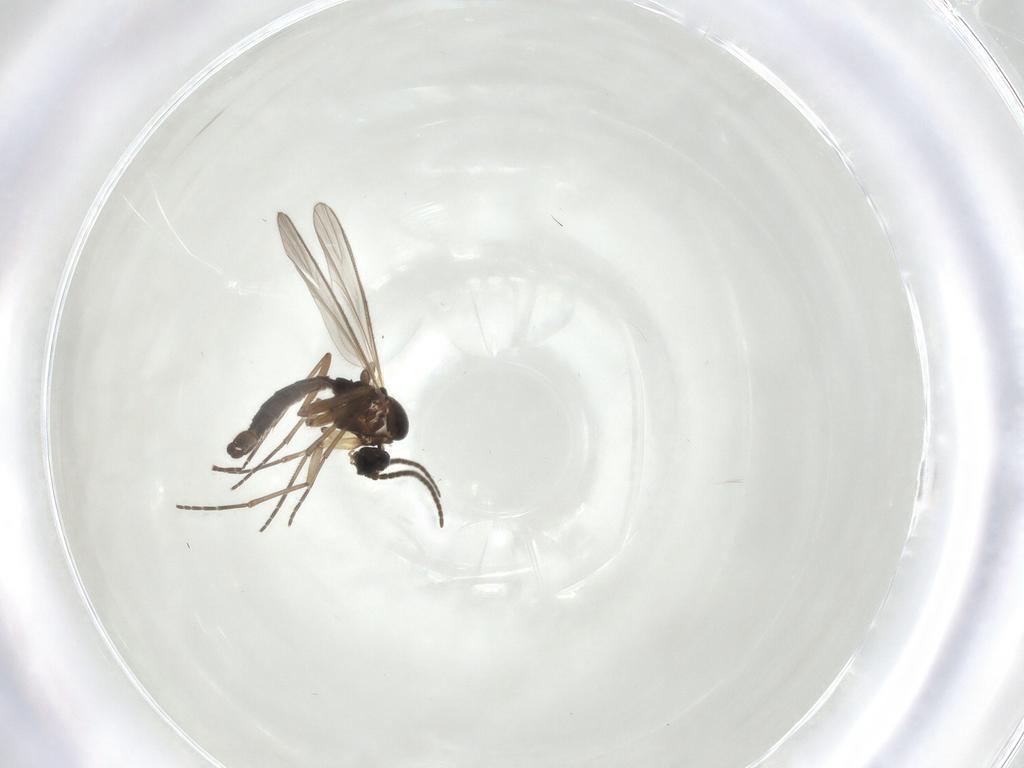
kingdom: Animalia
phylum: Arthropoda
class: Insecta
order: Diptera
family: Sciaridae
